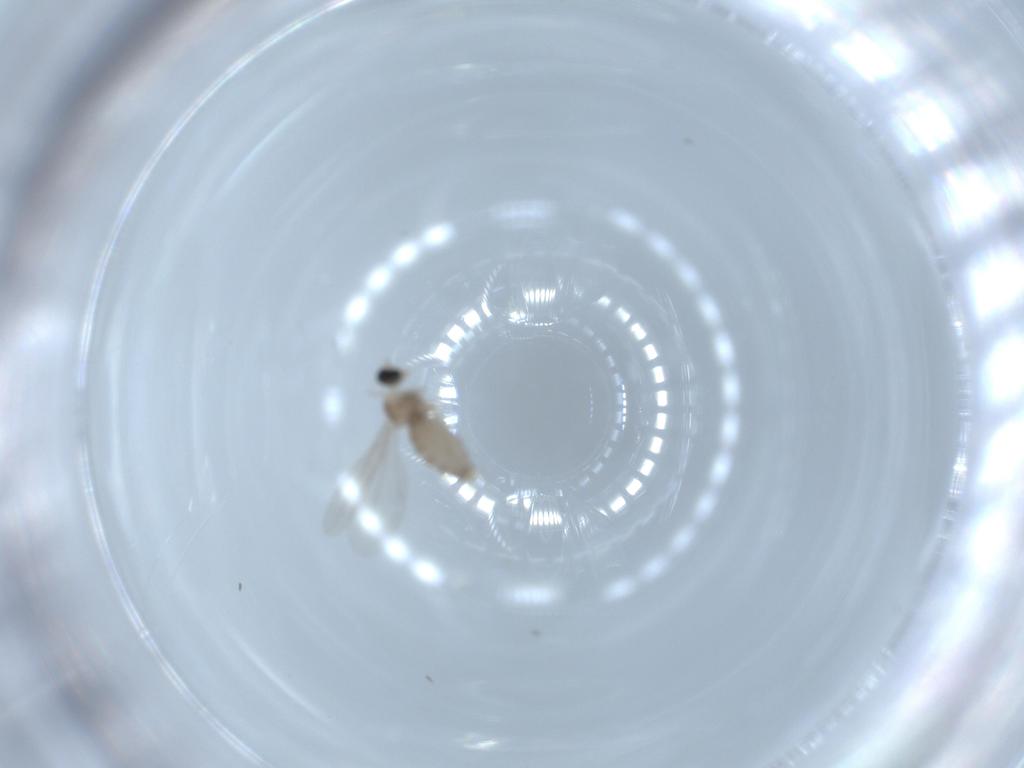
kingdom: Animalia
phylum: Arthropoda
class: Insecta
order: Diptera
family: Cecidomyiidae
